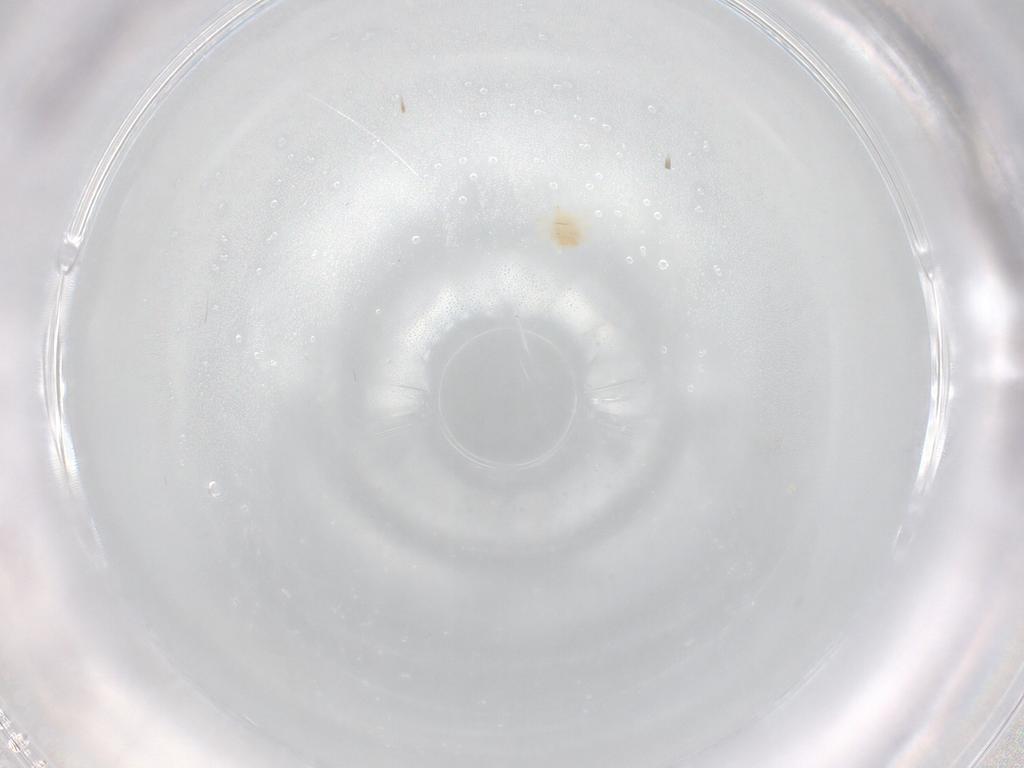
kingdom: Animalia
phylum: Arthropoda
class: Arachnida
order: Trombidiformes
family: Anystidae
